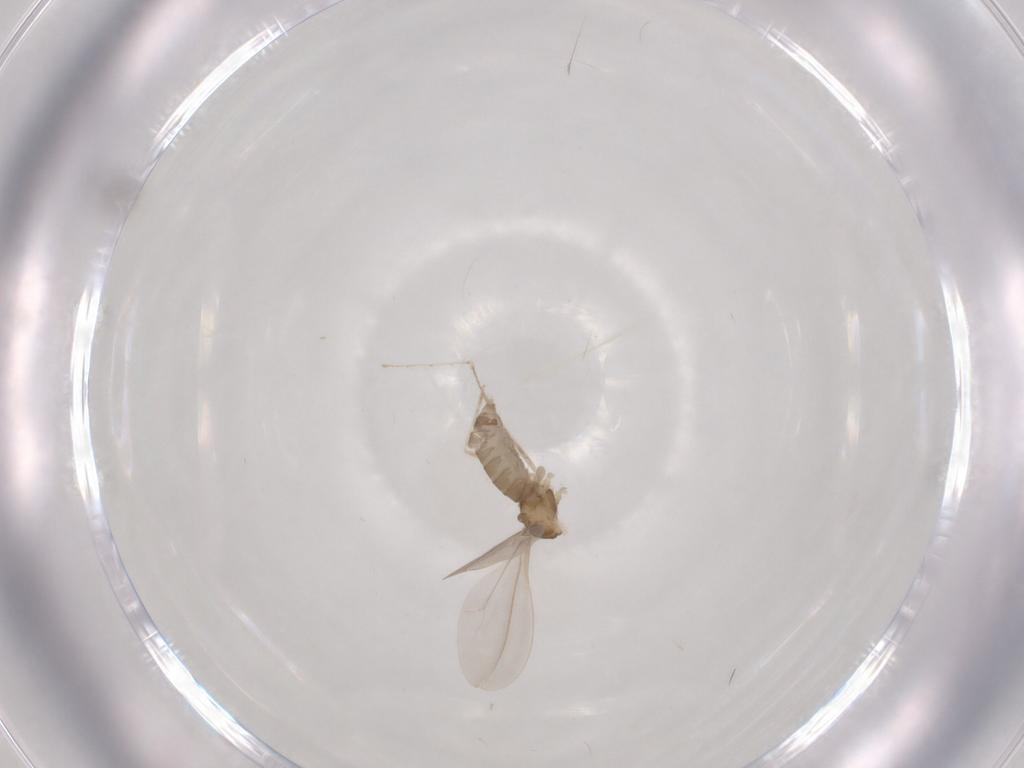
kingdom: Animalia
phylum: Arthropoda
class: Insecta
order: Diptera
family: Cecidomyiidae
